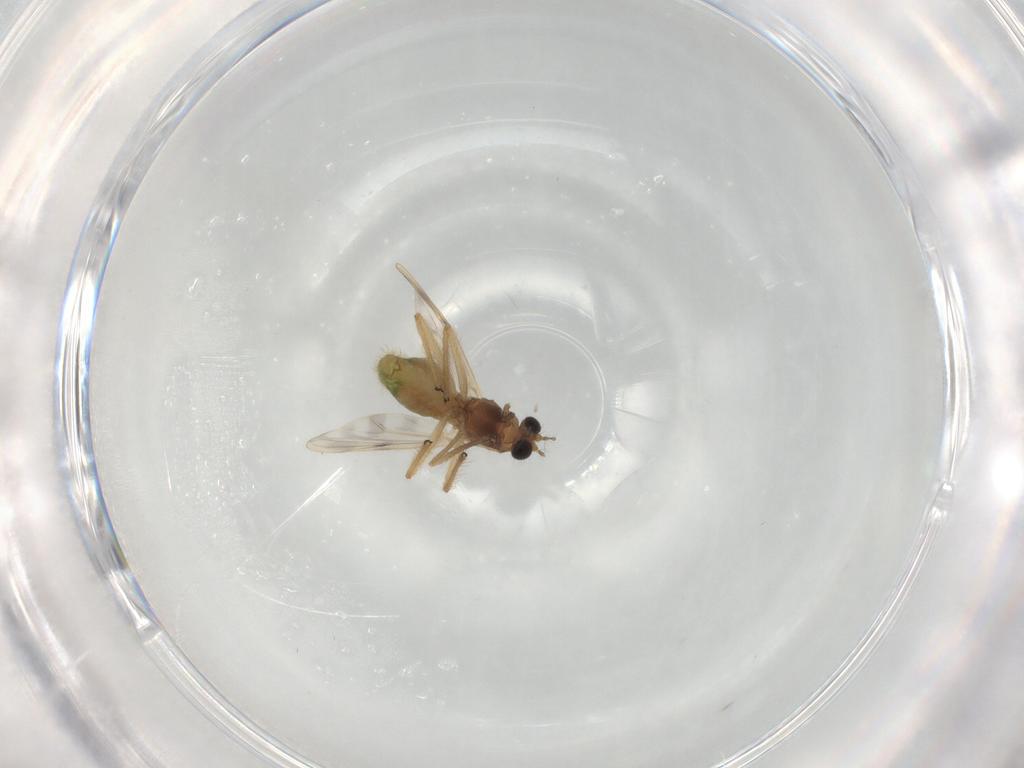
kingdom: Animalia
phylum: Arthropoda
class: Insecta
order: Diptera
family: Chironomidae
